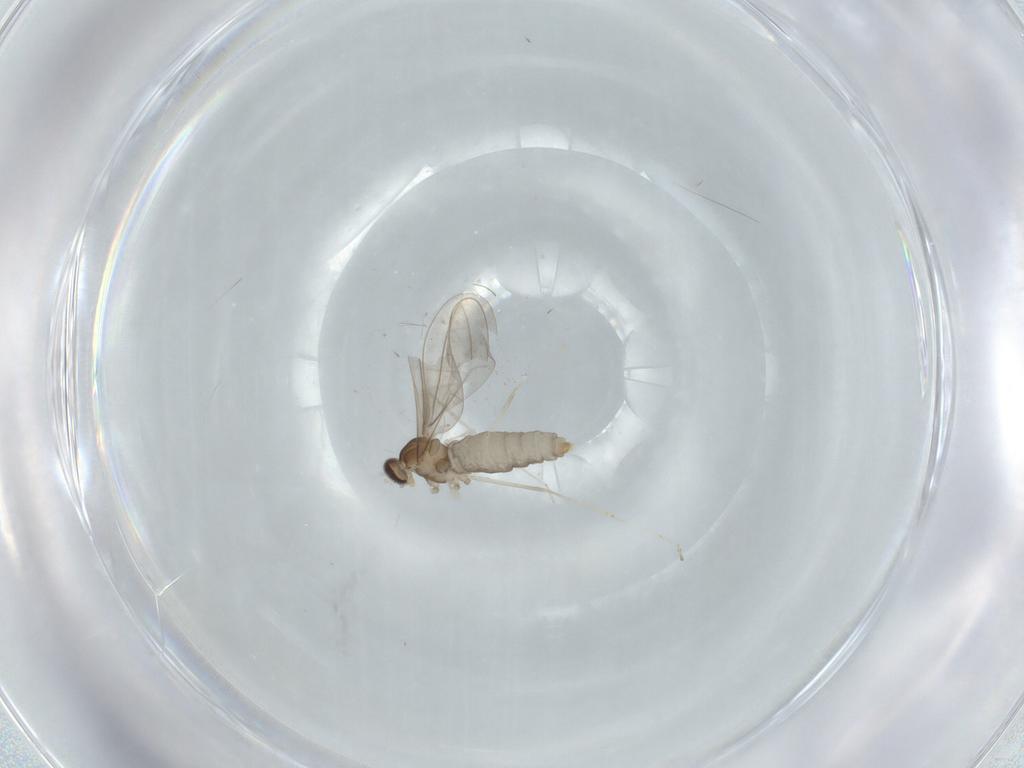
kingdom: Animalia
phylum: Arthropoda
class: Insecta
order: Diptera
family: Cecidomyiidae
